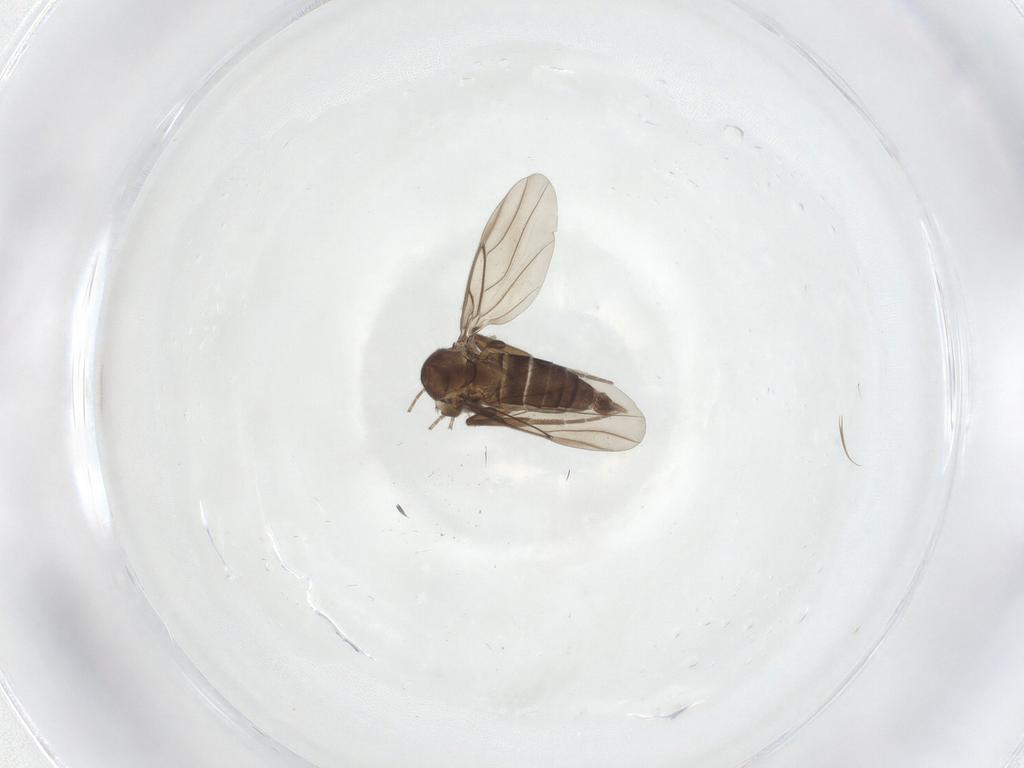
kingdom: Animalia
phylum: Arthropoda
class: Insecta
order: Diptera
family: Phoridae
